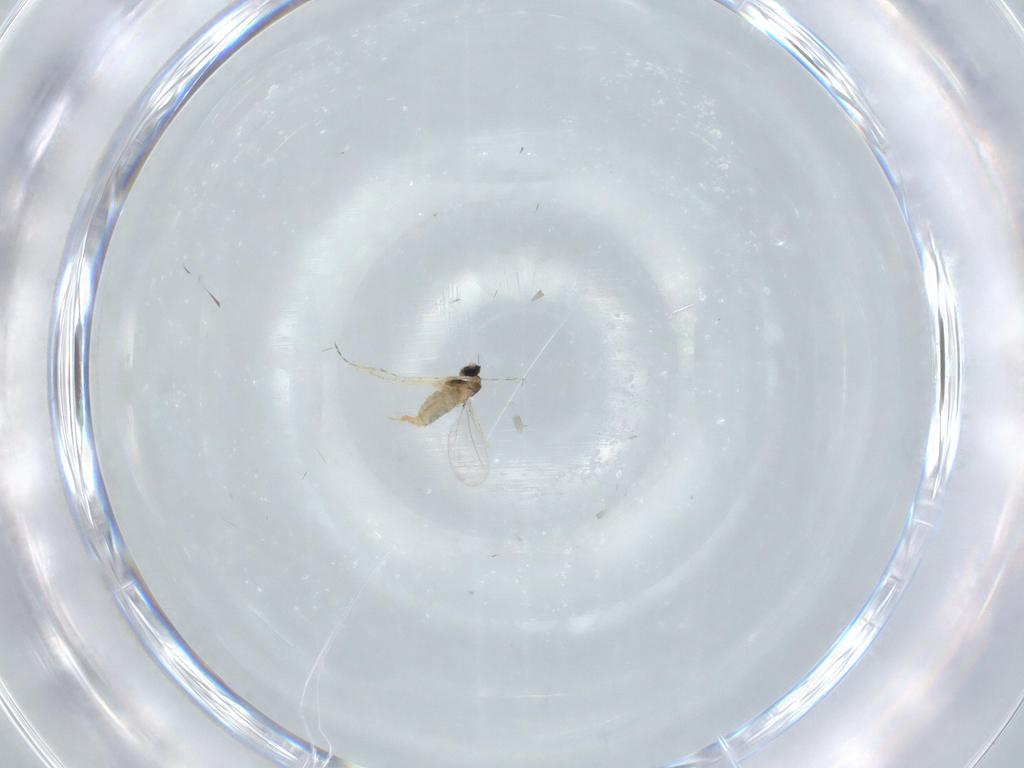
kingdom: Animalia
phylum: Arthropoda
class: Insecta
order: Diptera
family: Cecidomyiidae
